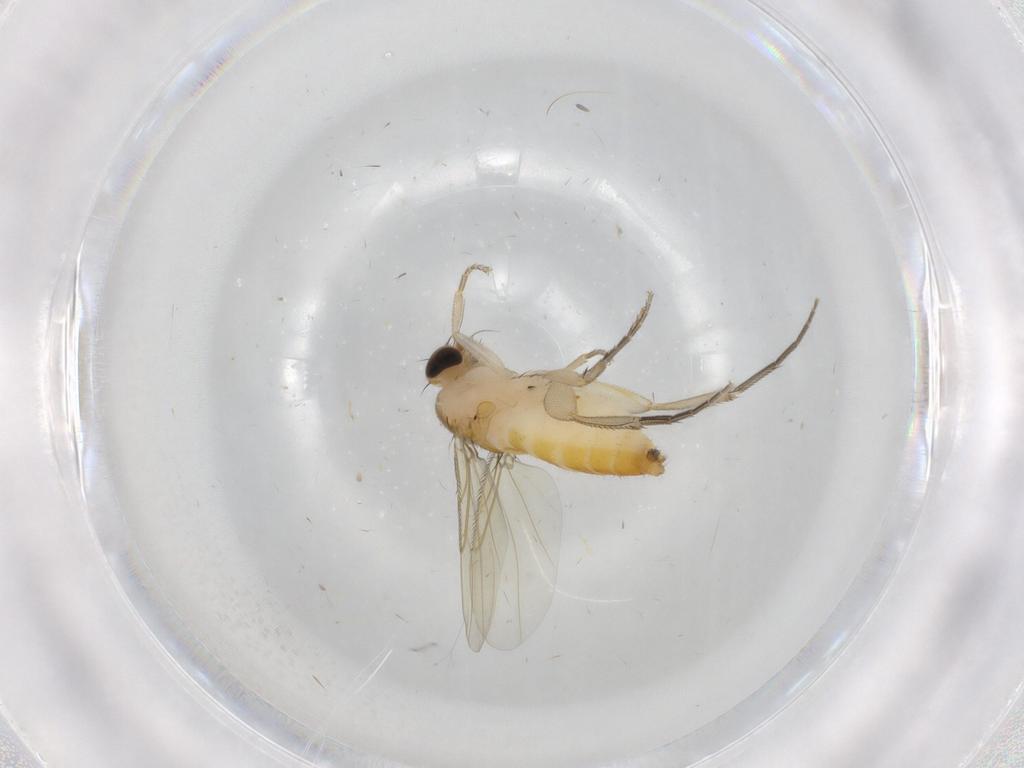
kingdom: Animalia
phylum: Arthropoda
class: Insecta
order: Diptera
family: Phoridae
